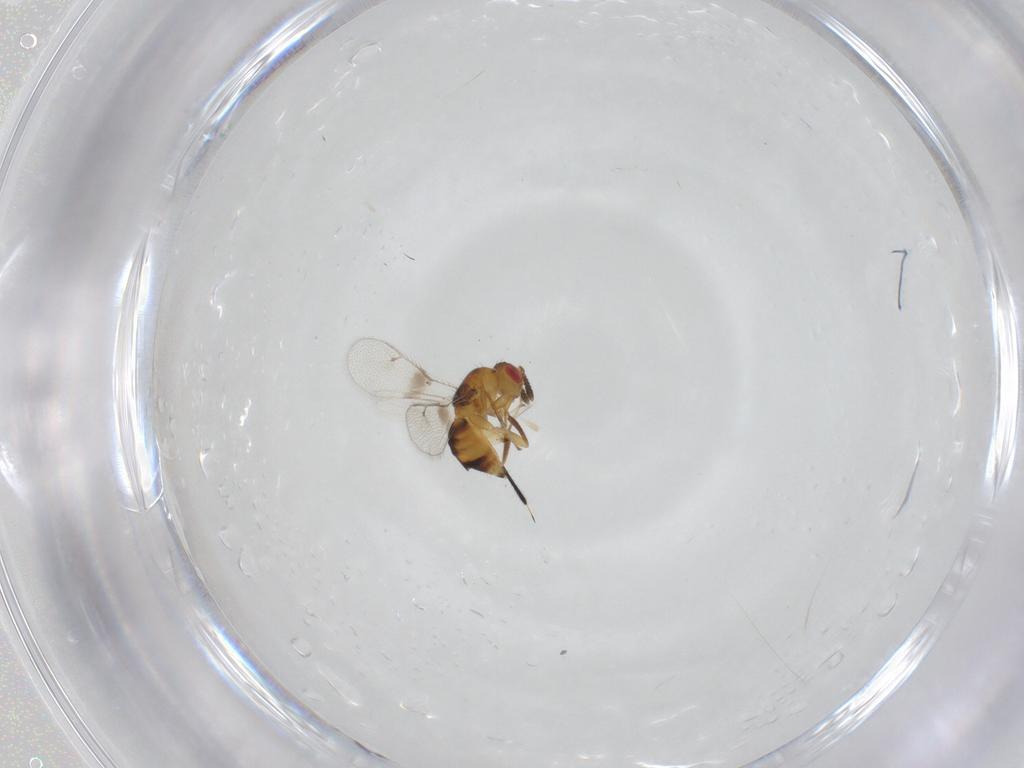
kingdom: Animalia
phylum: Arthropoda
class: Insecta
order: Hymenoptera
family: Torymidae
